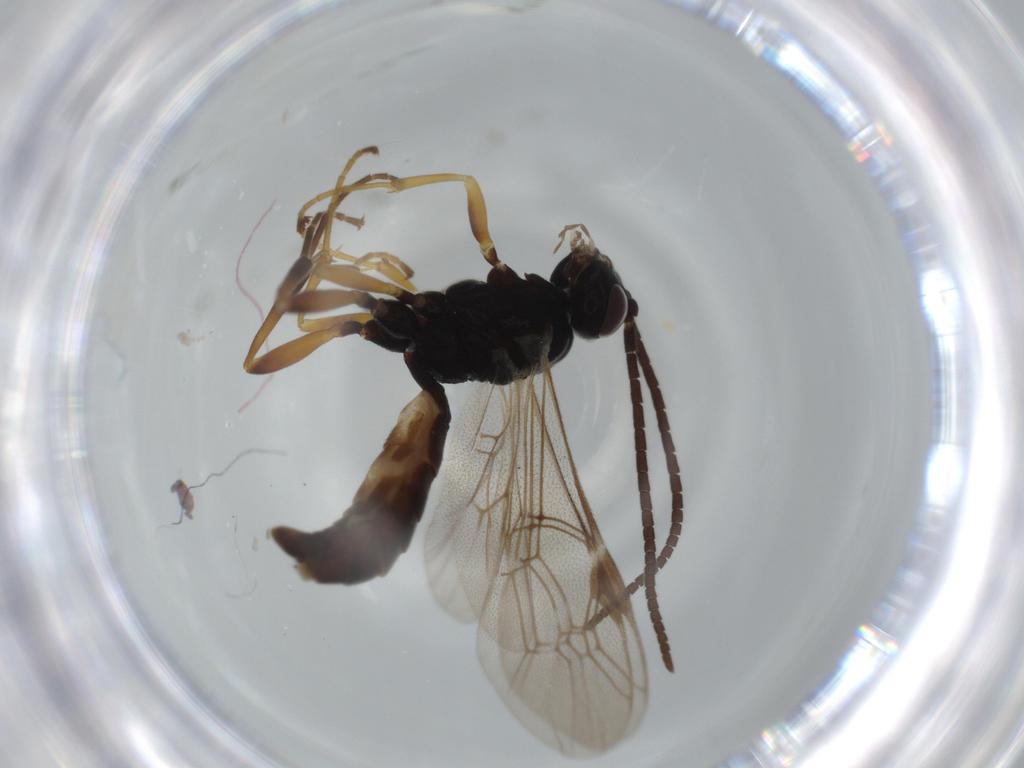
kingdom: Animalia
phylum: Arthropoda
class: Insecta
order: Hymenoptera
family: Ichneumonidae
